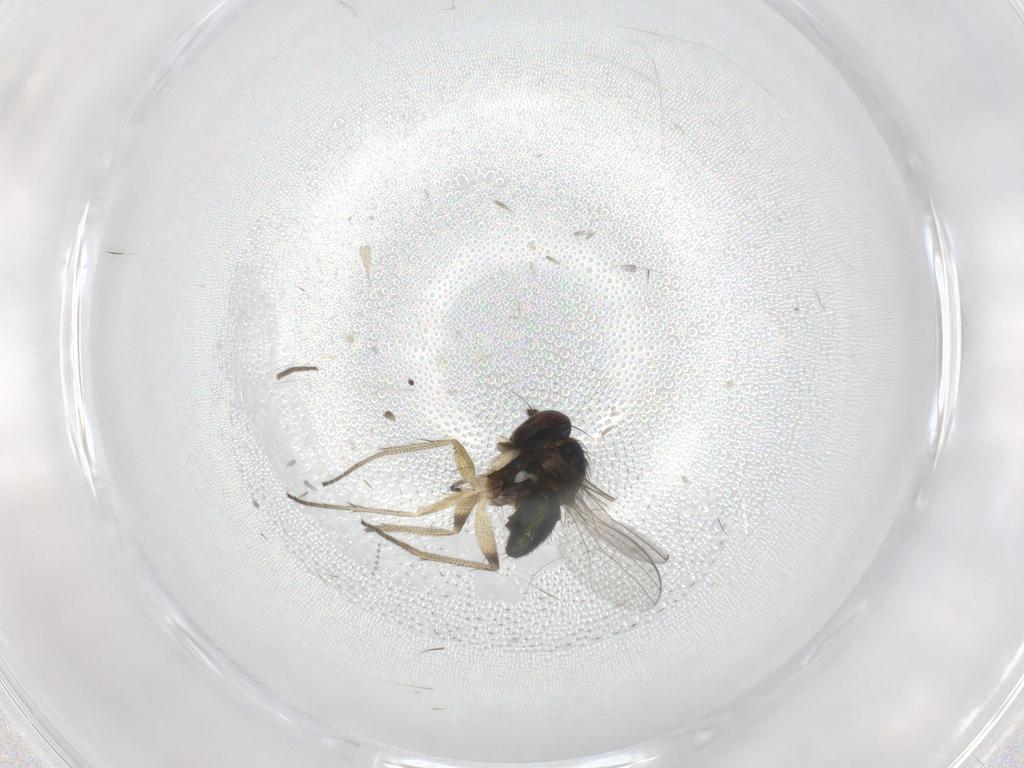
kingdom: Animalia
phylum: Arthropoda
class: Insecta
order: Diptera
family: Psychodidae
